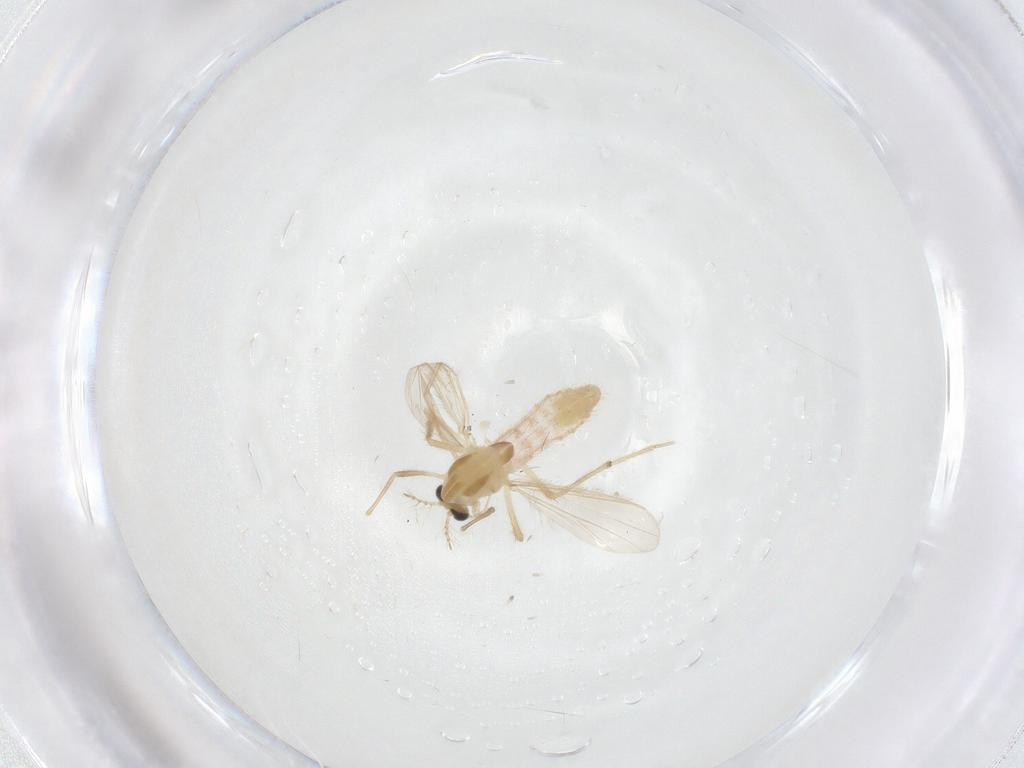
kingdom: Animalia
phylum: Arthropoda
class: Insecta
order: Diptera
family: Chironomidae
